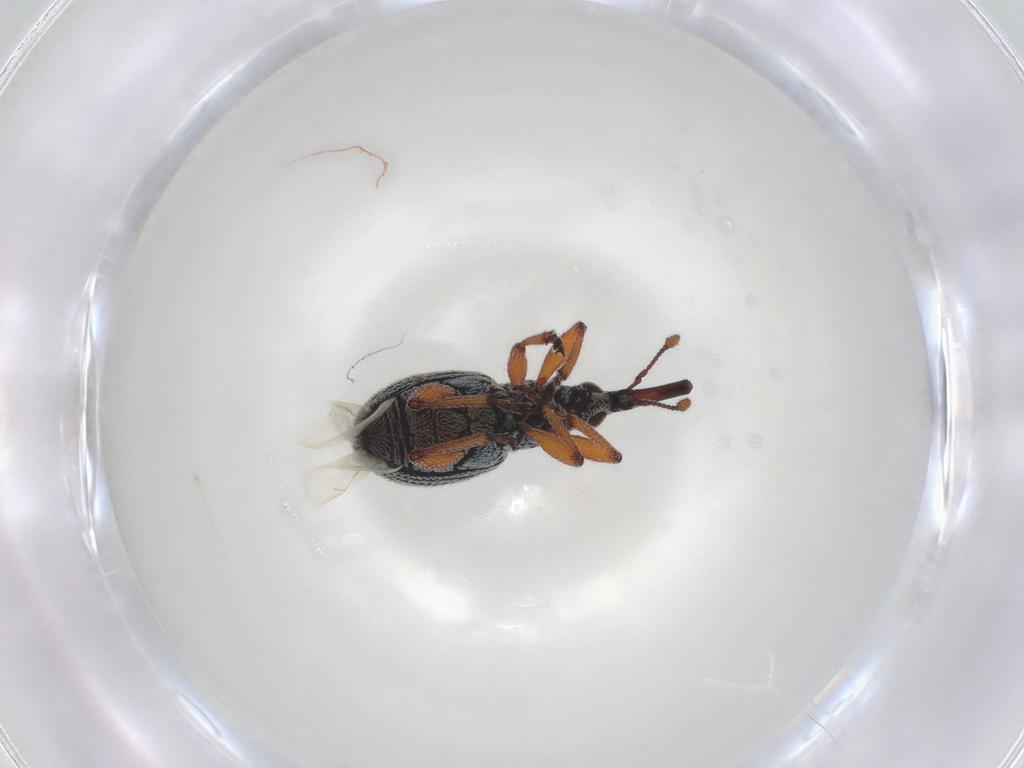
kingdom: Animalia
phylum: Arthropoda
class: Insecta
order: Coleoptera
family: Brentidae
